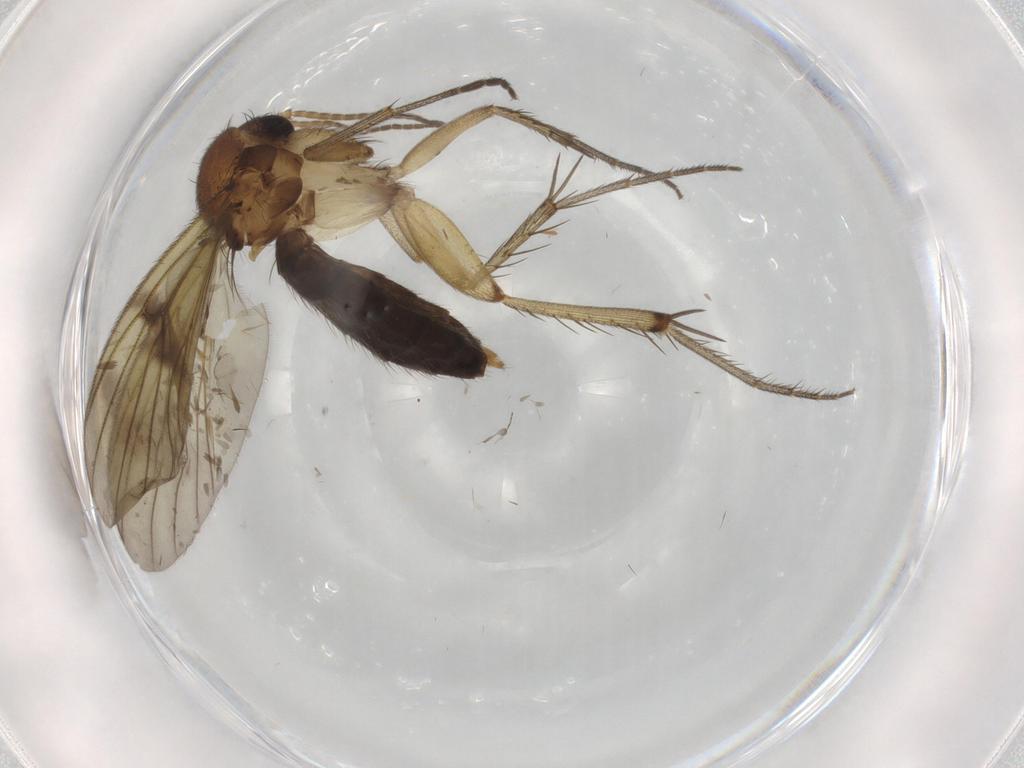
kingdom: Animalia
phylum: Arthropoda
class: Insecta
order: Diptera
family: Hybotidae
